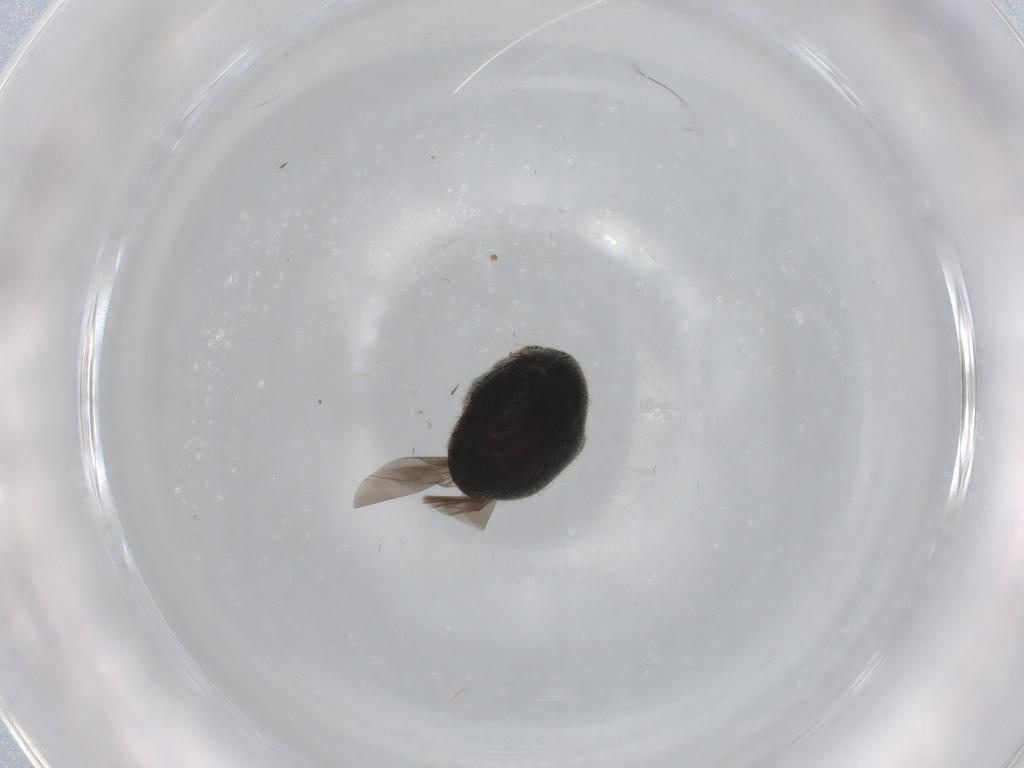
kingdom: Animalia
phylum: Arthropoda
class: Insecta
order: Coleoptera
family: Ptinidae
